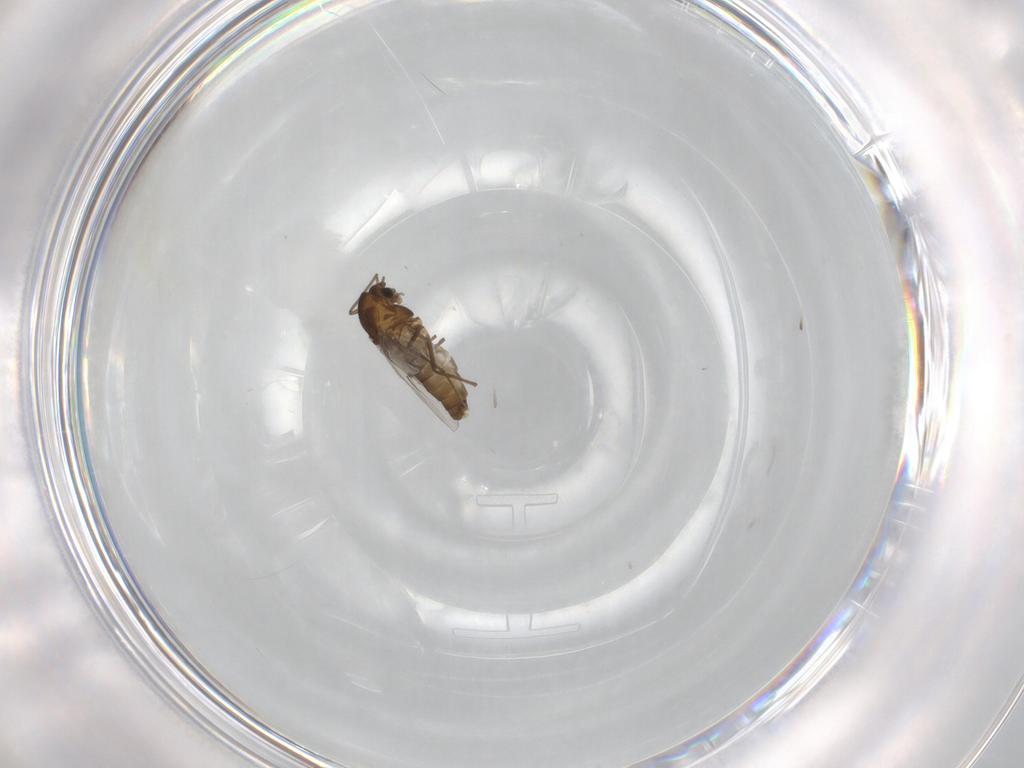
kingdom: Animalia
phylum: Arthropoda
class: Insecta
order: Diptera
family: Chironomidae
